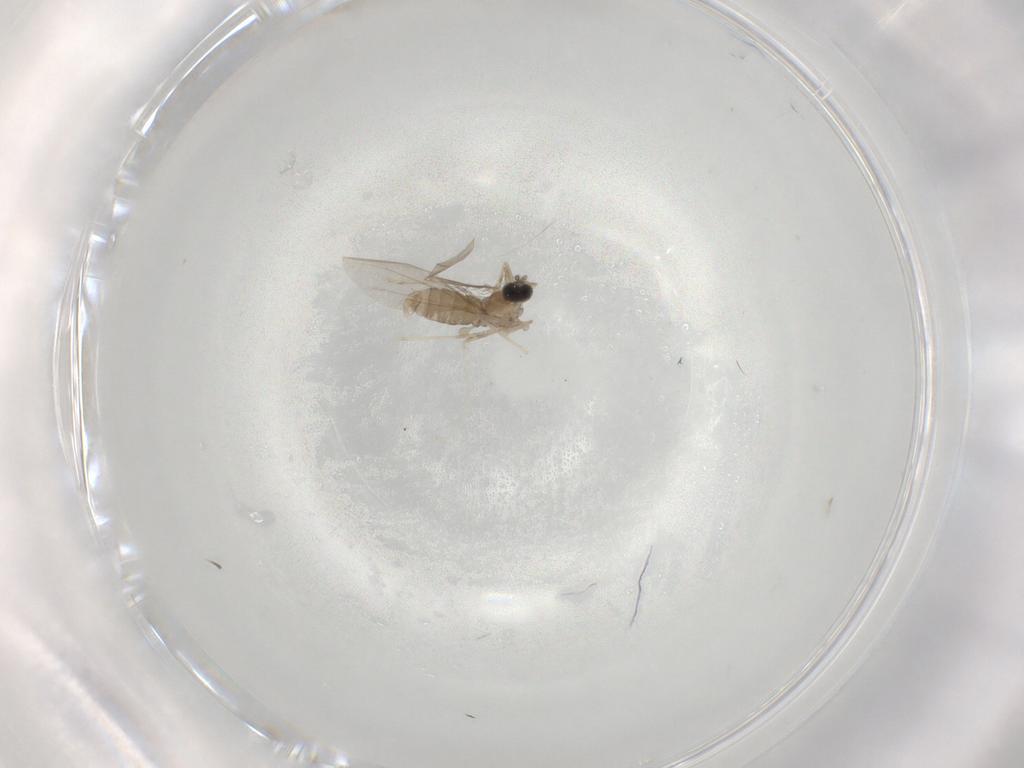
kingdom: Animalia
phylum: Arthropoda
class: Insecta
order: Diptera
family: Cecidomyiidae
